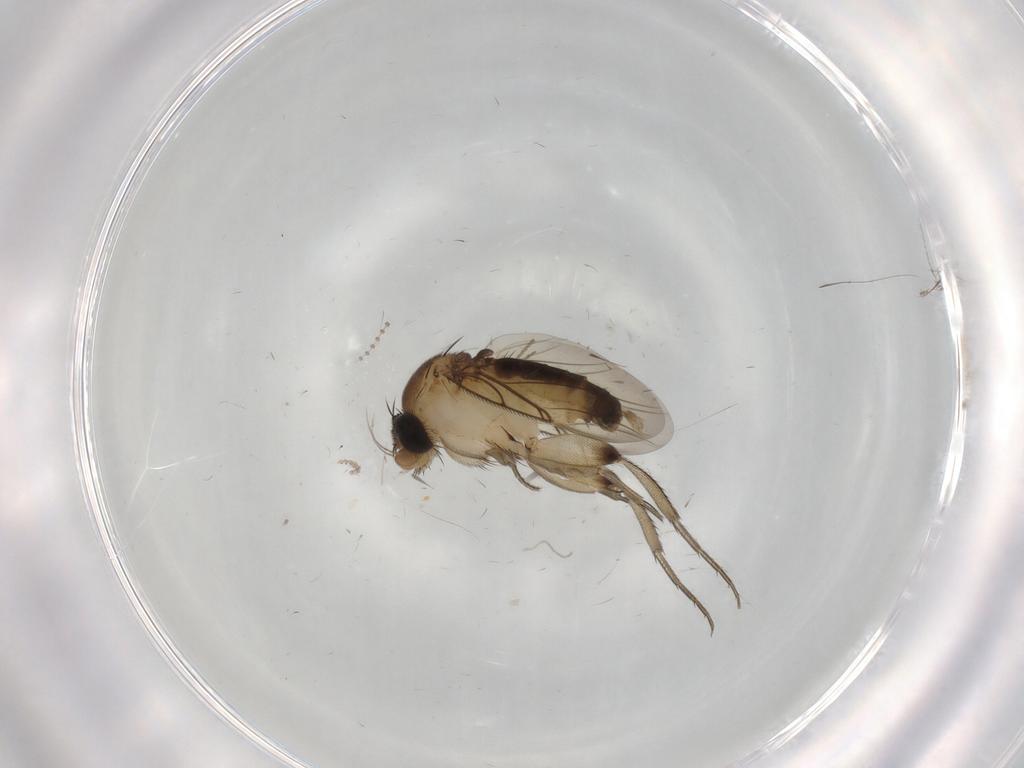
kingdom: Animalia
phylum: Arthropoda
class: Insecta
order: Diptera
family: Phoridae
